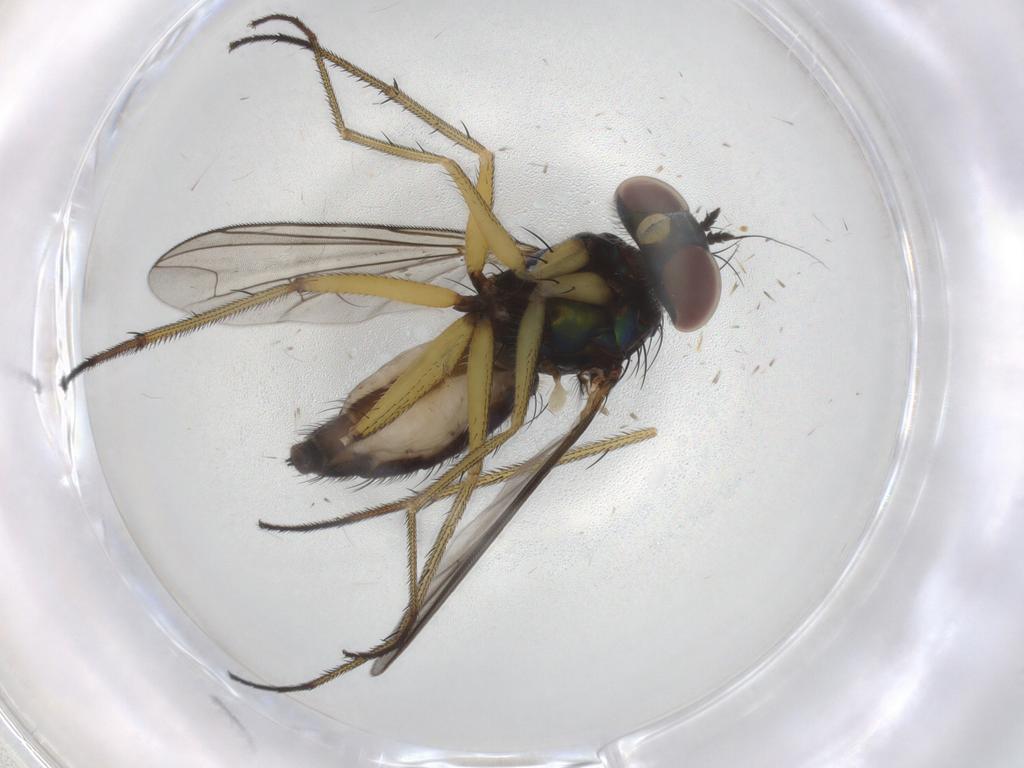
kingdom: Animalia
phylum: Arthropoda
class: Insecta
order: Diptera
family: Dolichopodidae
